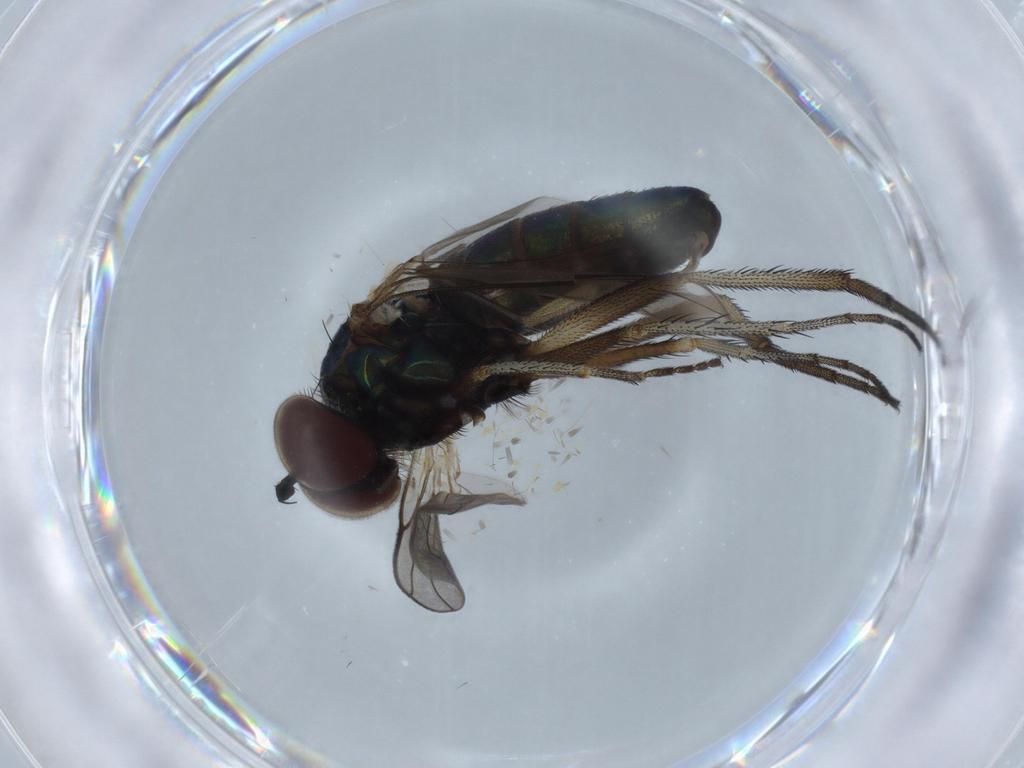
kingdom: Animalia
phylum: Arthropoda
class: Insecta
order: Diptera
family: Dolichopodidae
